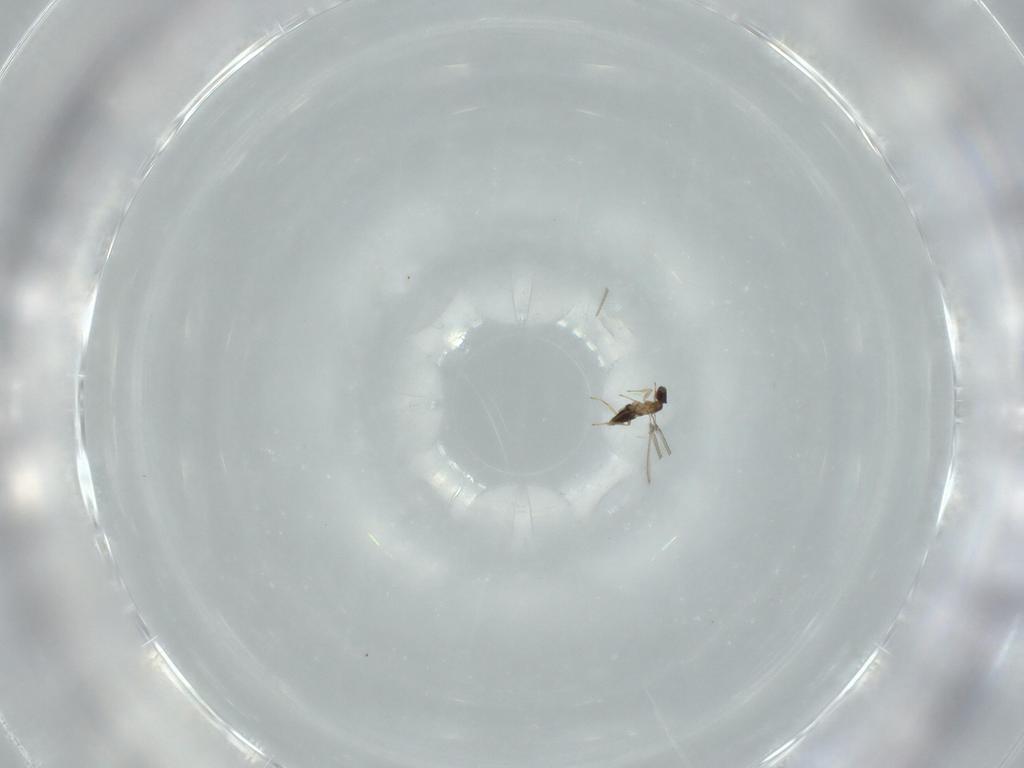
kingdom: Animalia
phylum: Arthropoda
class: Insecta
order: Hymenoptera
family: Mymaridae
